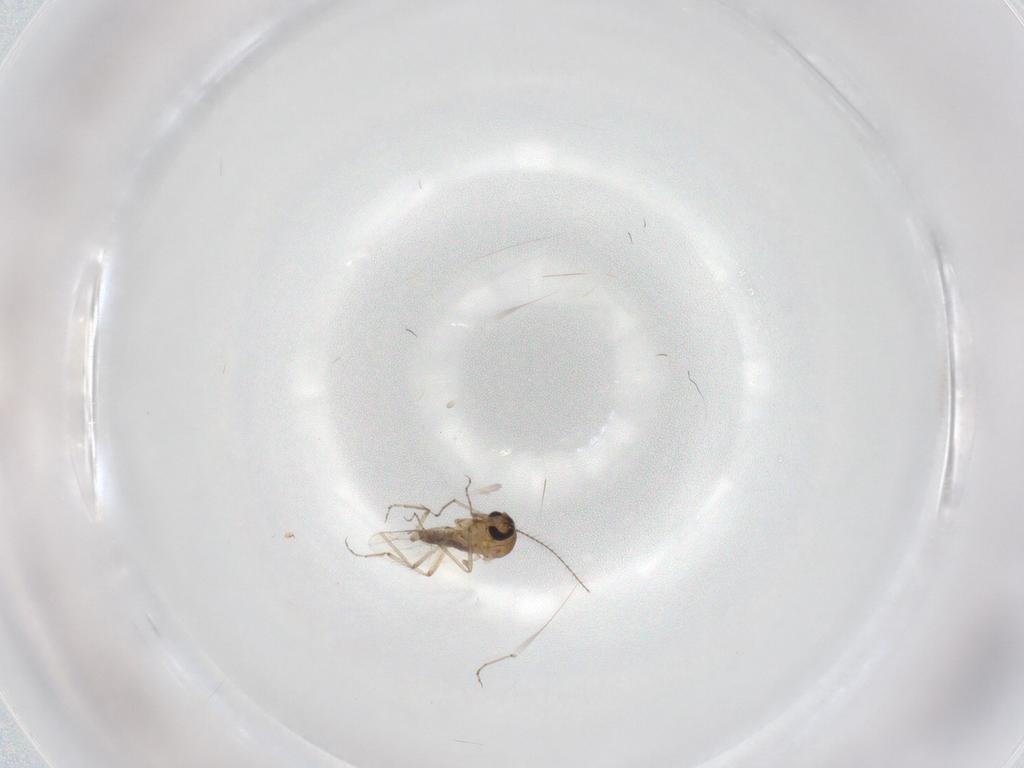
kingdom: Animalia
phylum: Arthropoda
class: Insecta
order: Diptera
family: Ceratopogonidae
